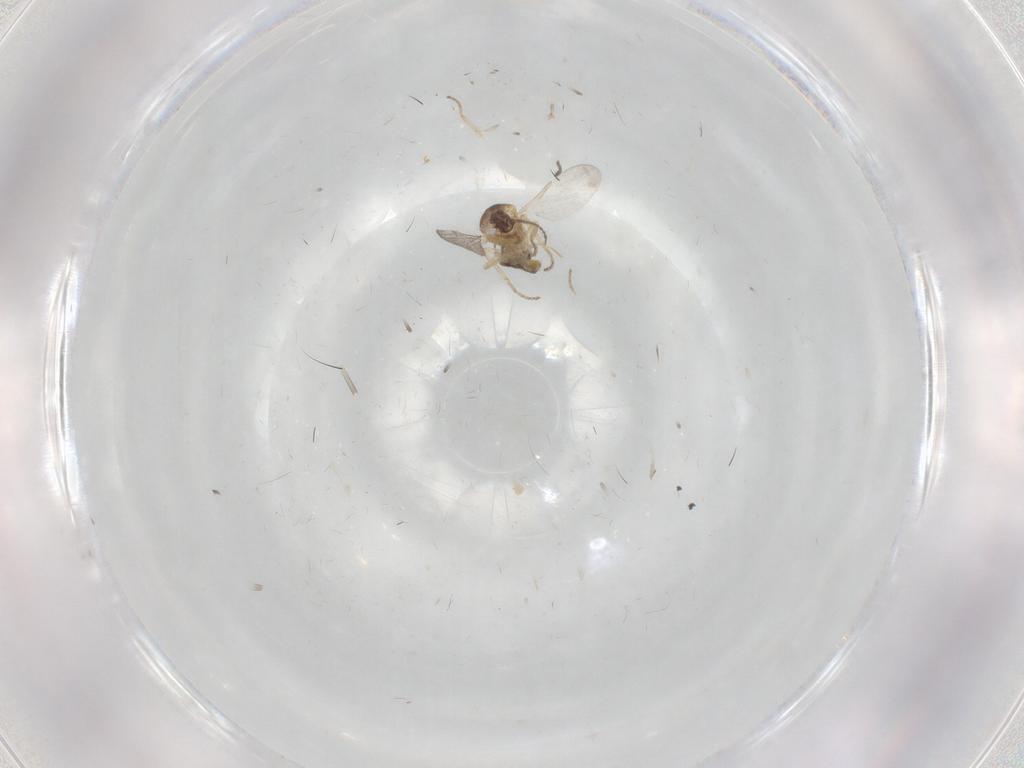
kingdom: Animalia
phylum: Arthropoda
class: Insecta
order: Diptera
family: Ceratopogonidae
